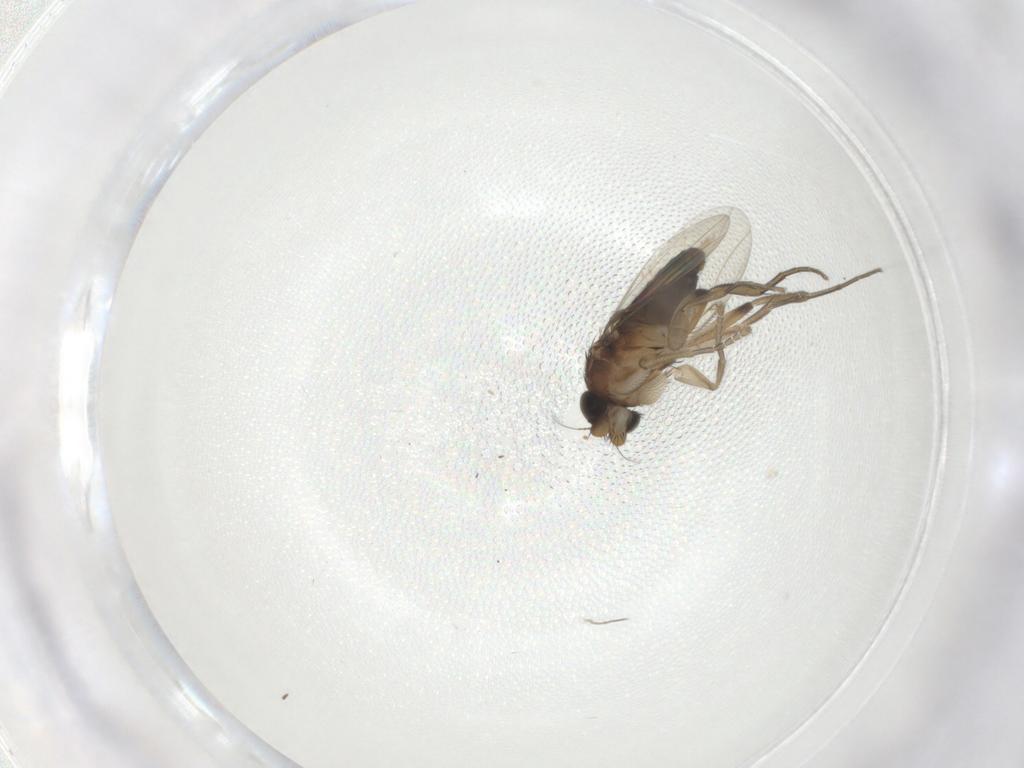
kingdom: Animalia
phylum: Arthropoda
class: Insecta
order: Diptera
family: Phoridae
